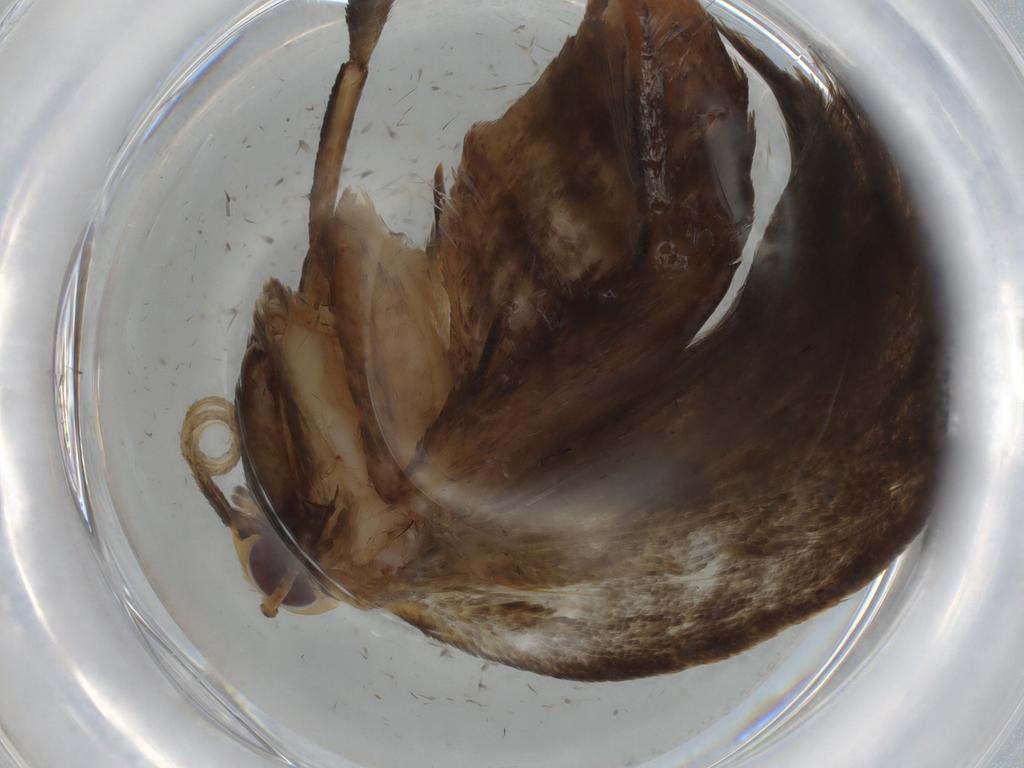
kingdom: Animalia
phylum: Arthropoda
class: Insecta
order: Lepidoptera
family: Oecophoridae
